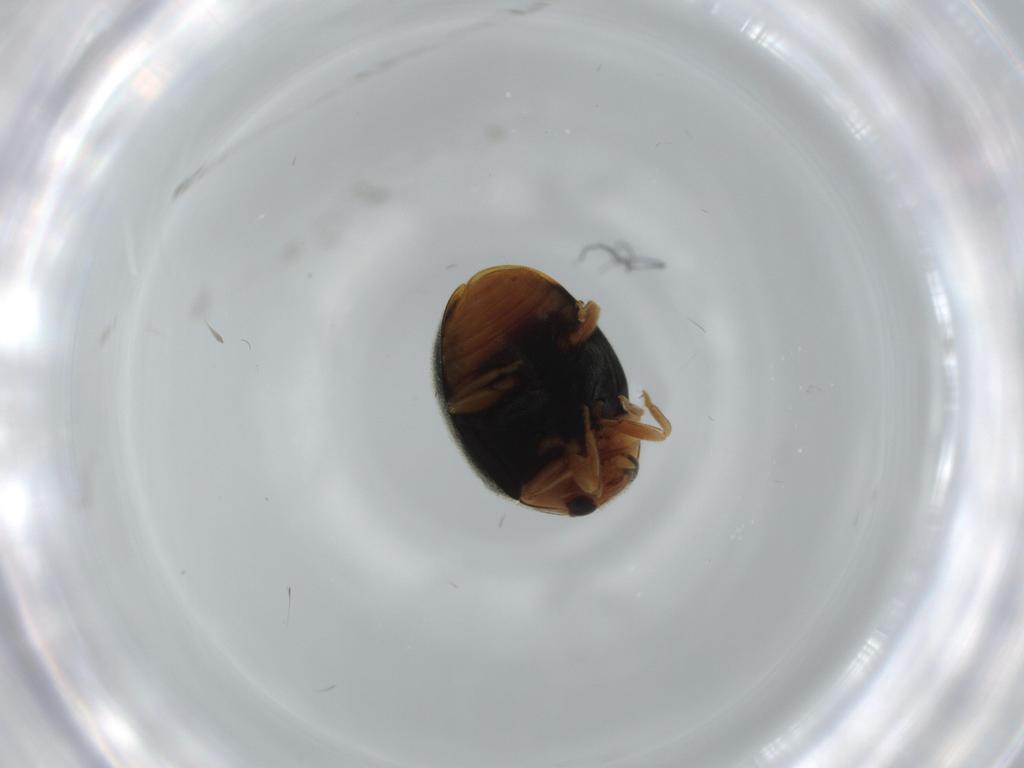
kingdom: Animalia
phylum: Arthropoda
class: Insecta
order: Coleoptera
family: Coccinellidae
